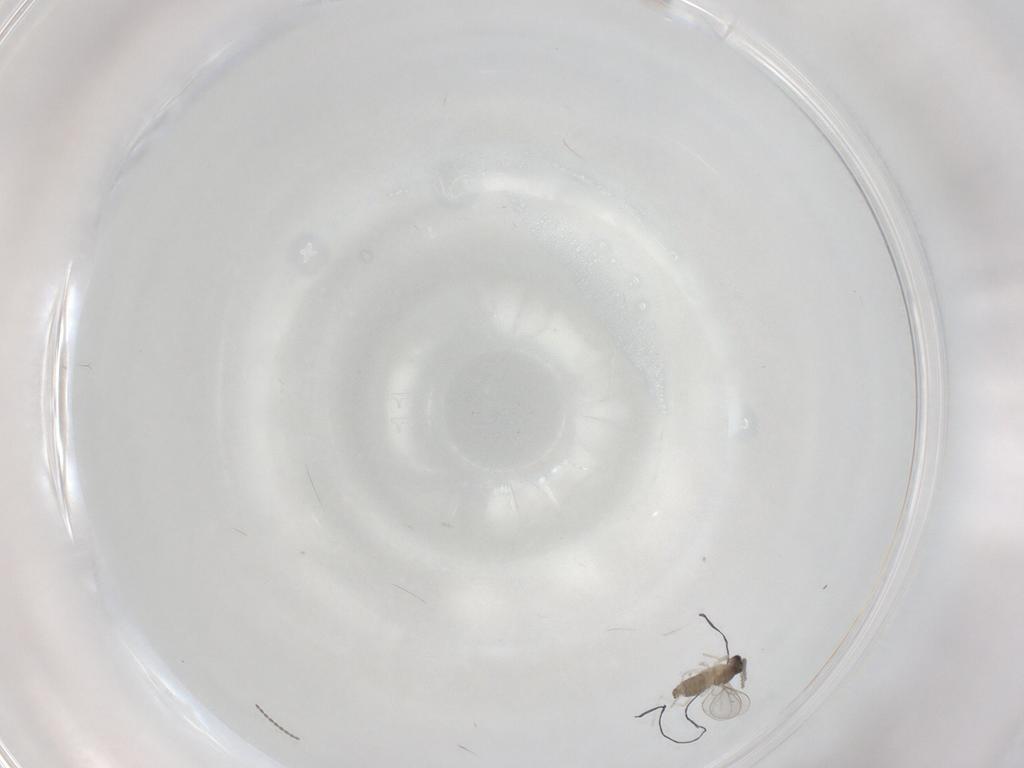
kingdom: Animalia
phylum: Arthropoda
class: Insecta
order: Diptera
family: Cecidomyiidae
